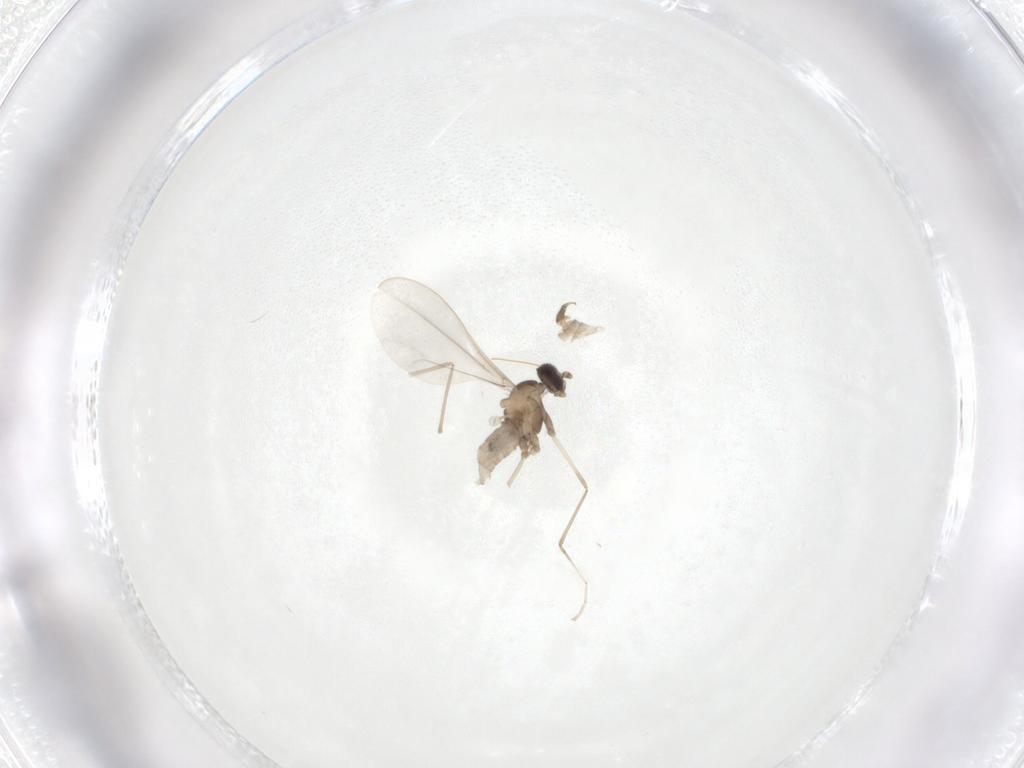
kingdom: Animalia
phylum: Arthropoda
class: Insecta
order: Diptera
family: Cecidomyiidae
